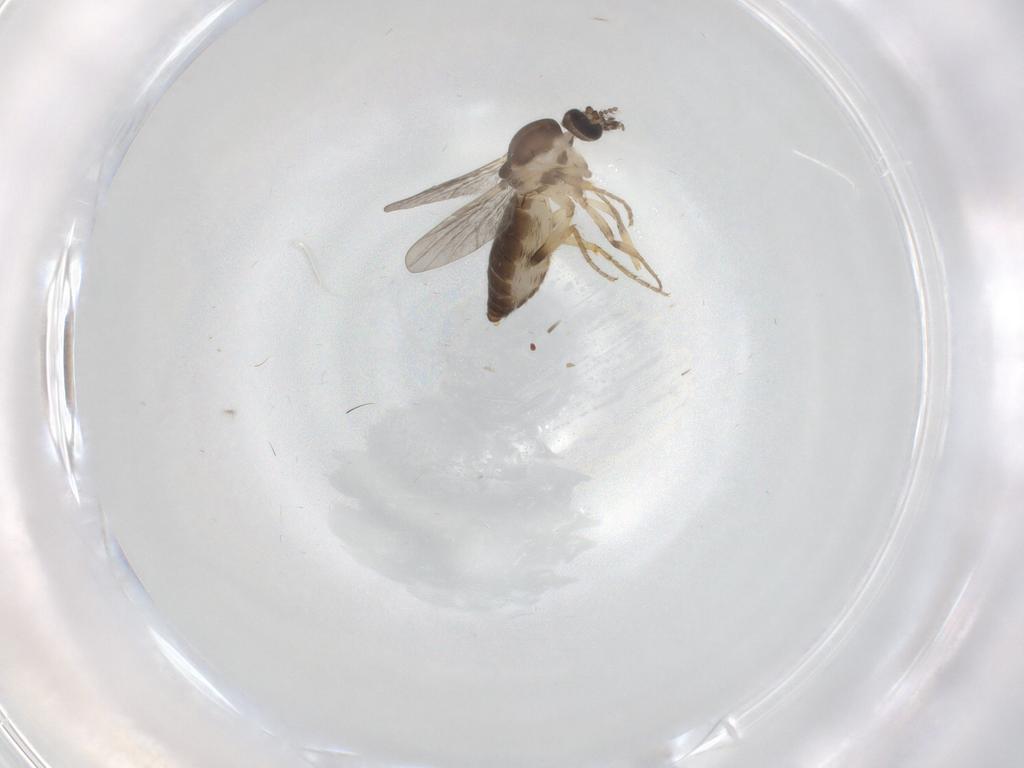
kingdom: Animalia
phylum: Arthropoda
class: Insecta
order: Diptera
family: Ceratopogonidae
